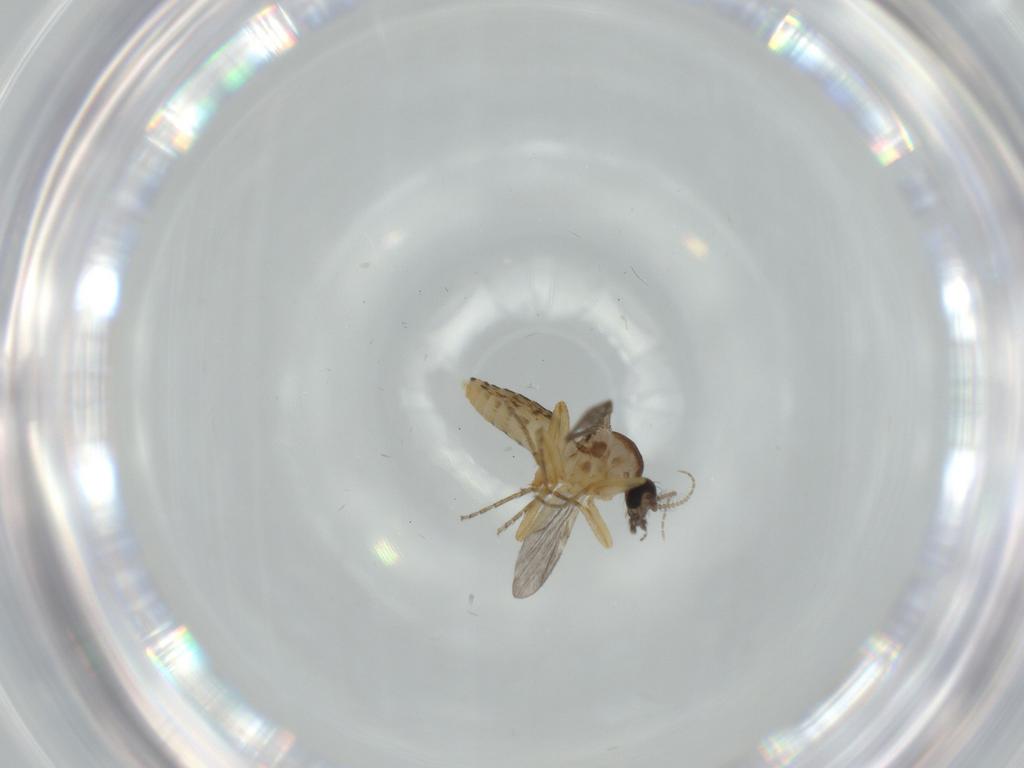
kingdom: Animalia
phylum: Arthropoda
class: Insecta
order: Diptera
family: Ceratopogonidae
